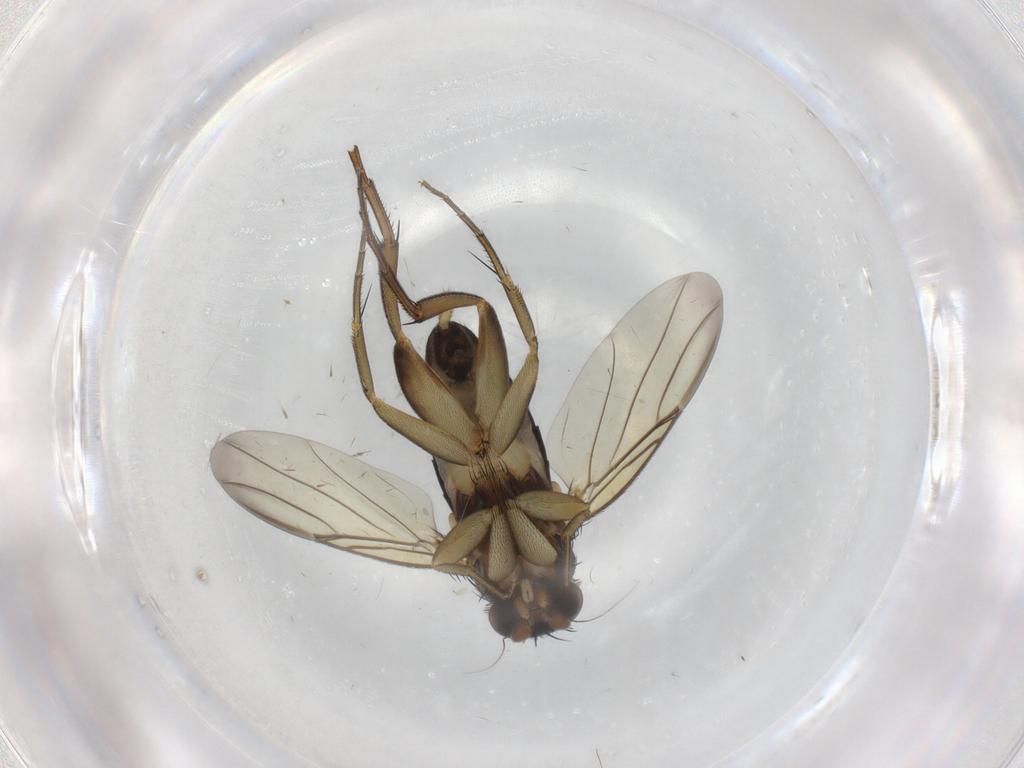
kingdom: Animalia
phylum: Arthropoda
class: Insecta
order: Diptera
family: Phoridae
